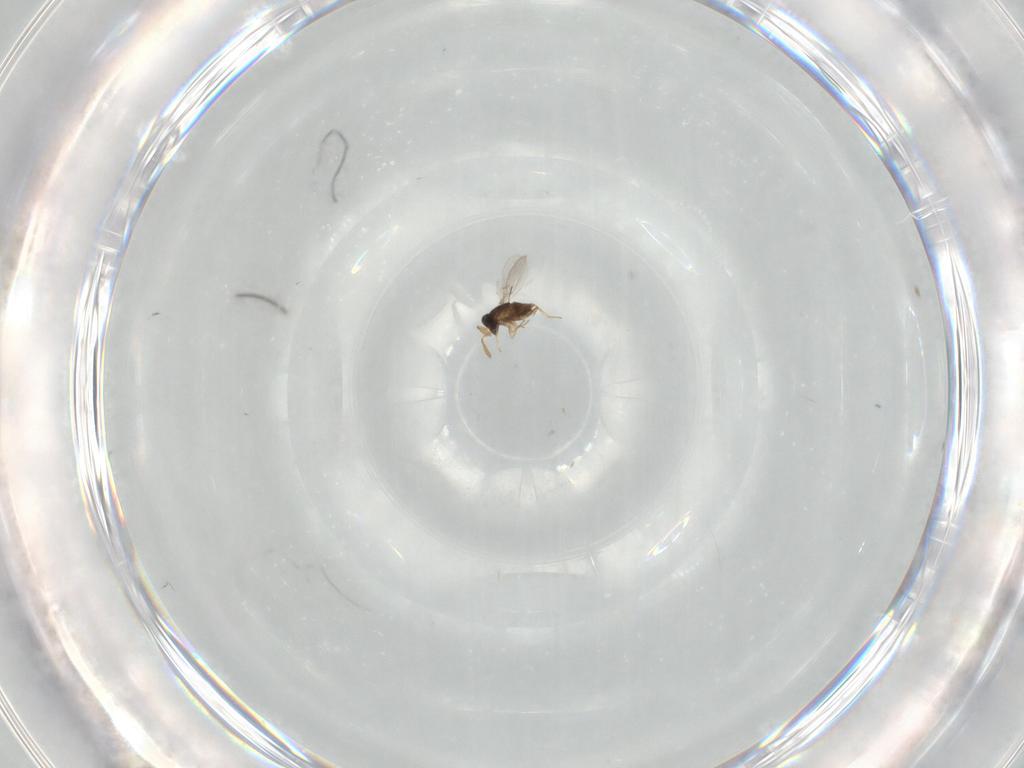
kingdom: Animalia
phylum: Arthropoda
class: Insecta
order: Hymenoptera
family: Encyrtidae
